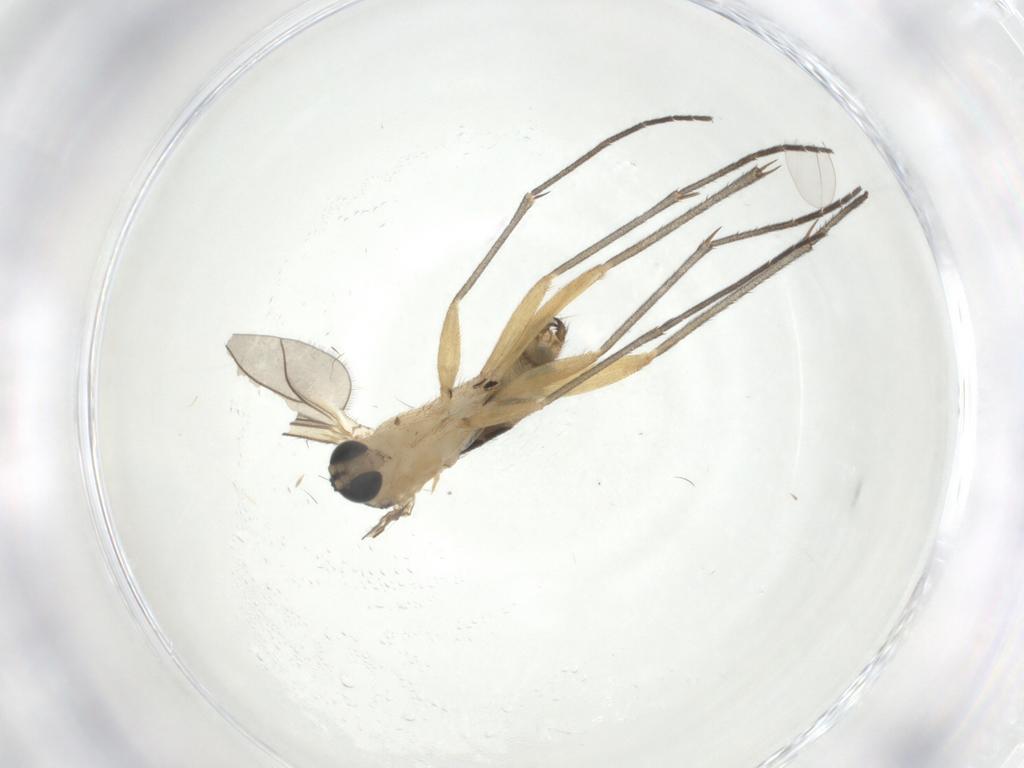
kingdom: Animalia
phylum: Arthropoda
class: Insecta
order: Diptera
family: Sciaridae
